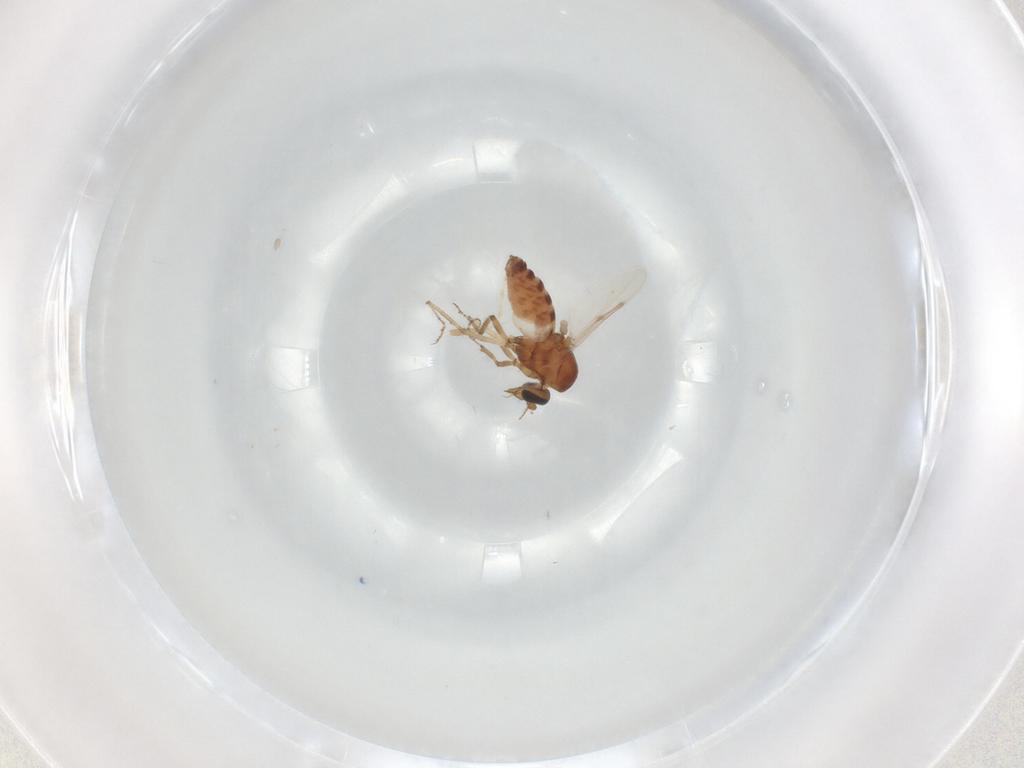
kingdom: Animalia
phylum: Arthropoda
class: Insecta
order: Diptera
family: Ceratopogonidae
